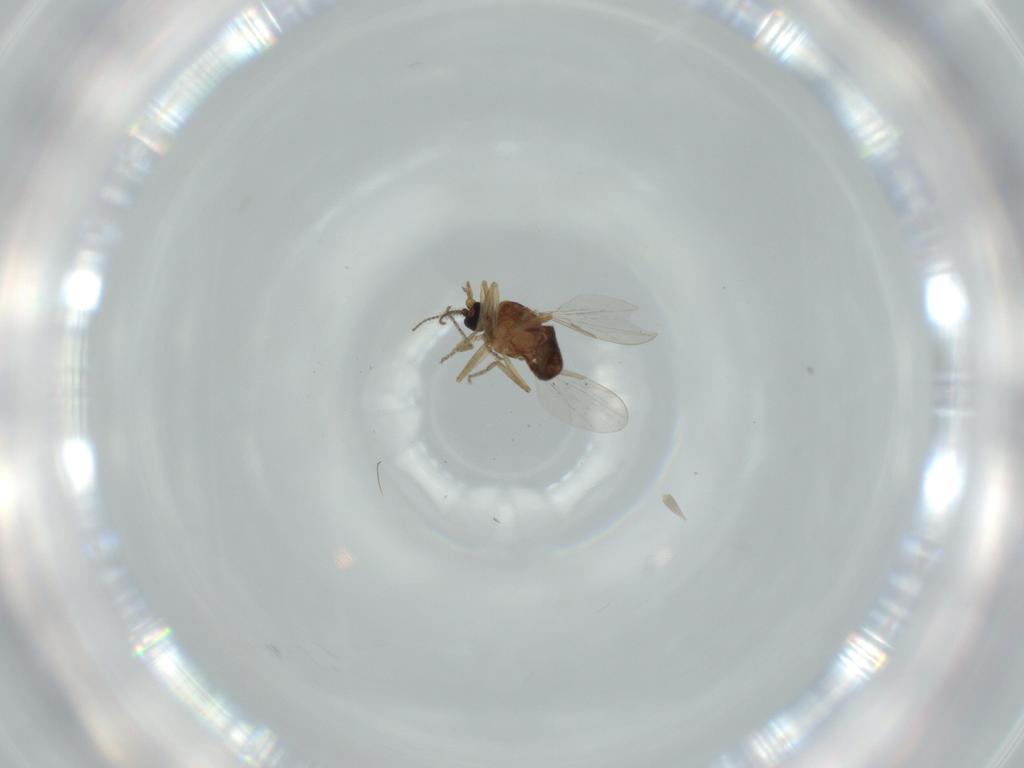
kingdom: Animalia
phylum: Arthropoda
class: Insecta
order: Diptera
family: Ceratopogonidae
